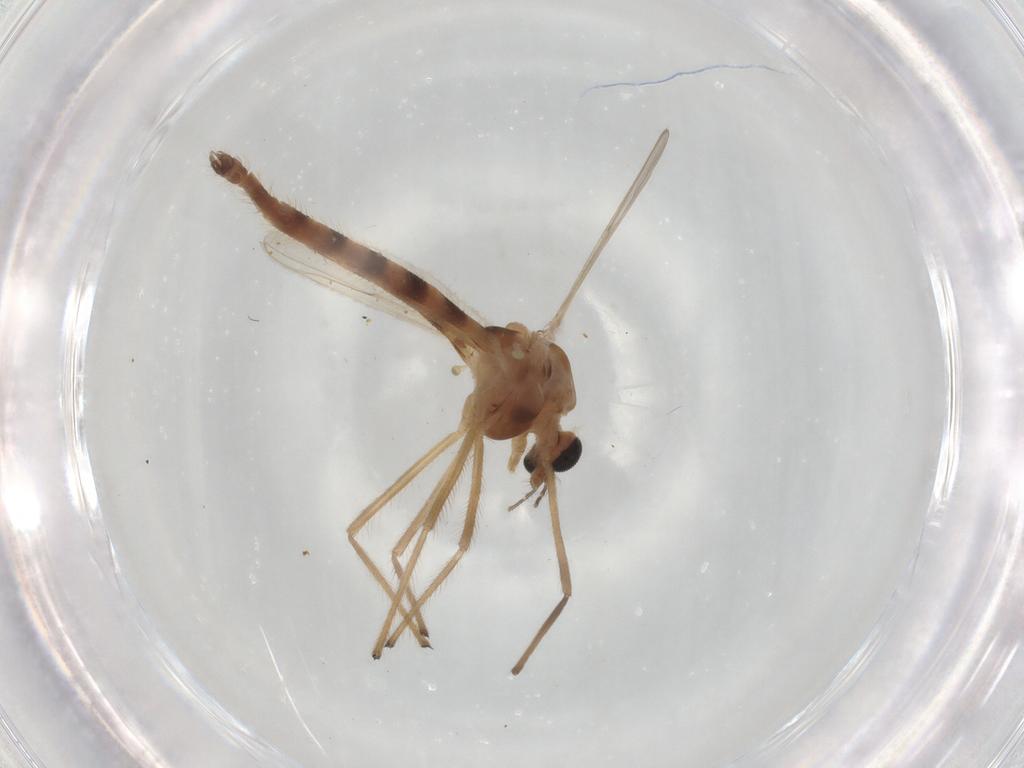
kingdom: Animalia
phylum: Arthropoda
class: Insecta
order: Diptera
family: Chironomidae
